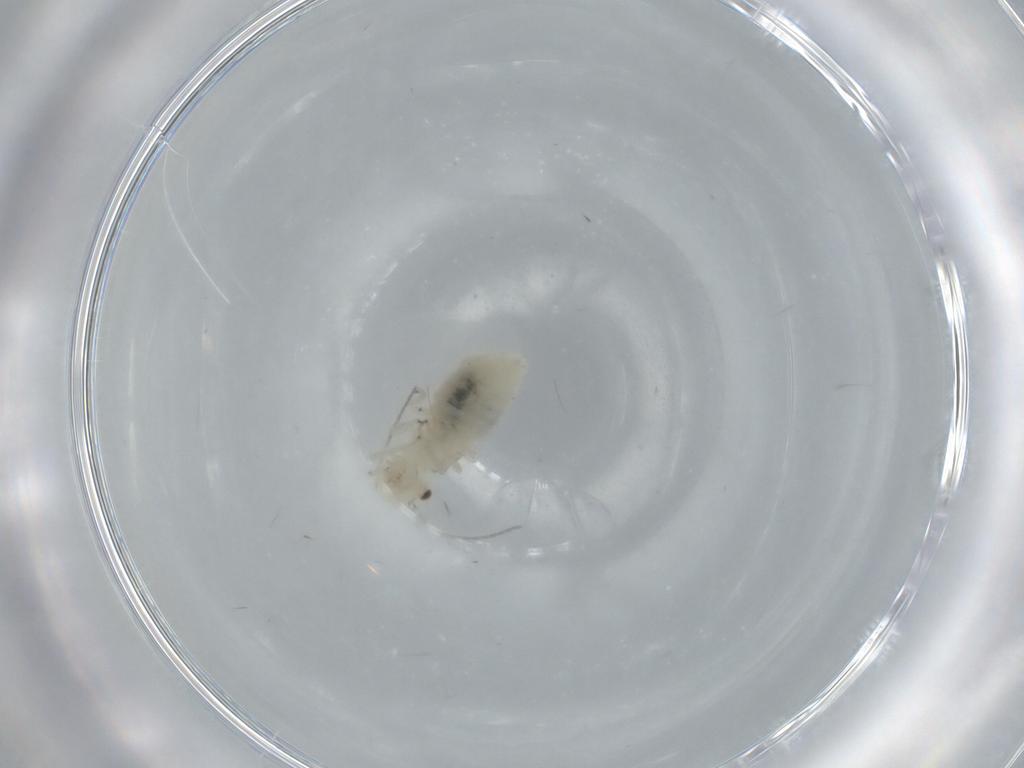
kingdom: Animalia
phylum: Arthropoda
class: Insecta
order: Psocodea
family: Caeciliusidae
